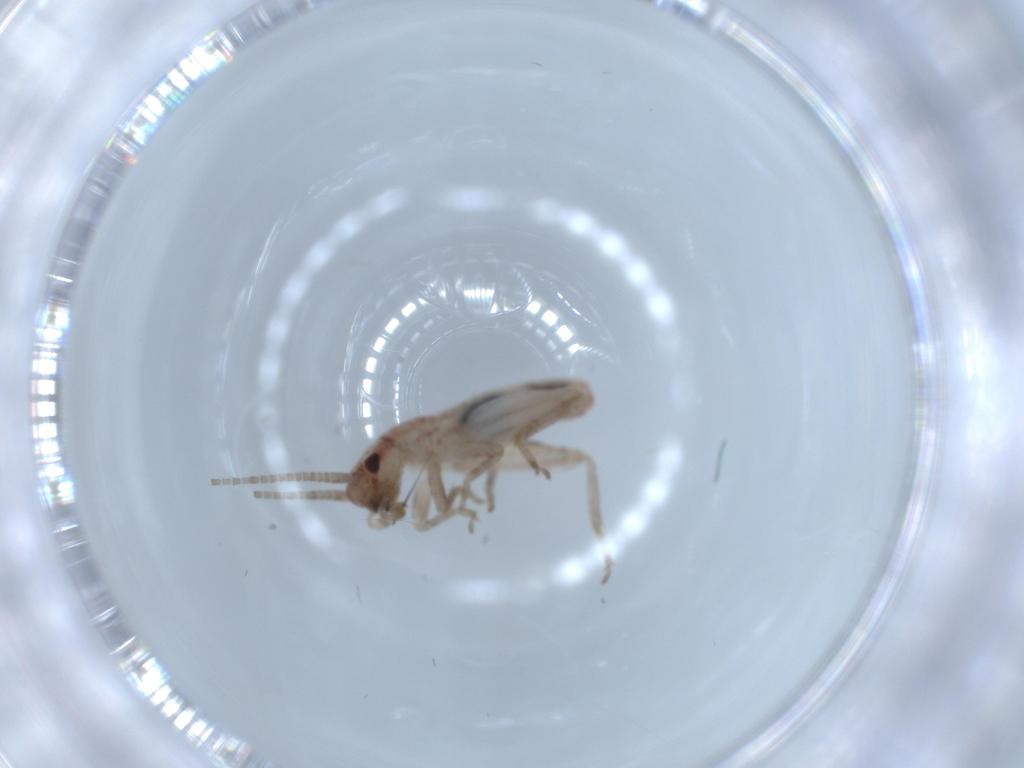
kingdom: Animalia
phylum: Arthropoda
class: Insecta
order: Orthoptera
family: Mogoplistidae
